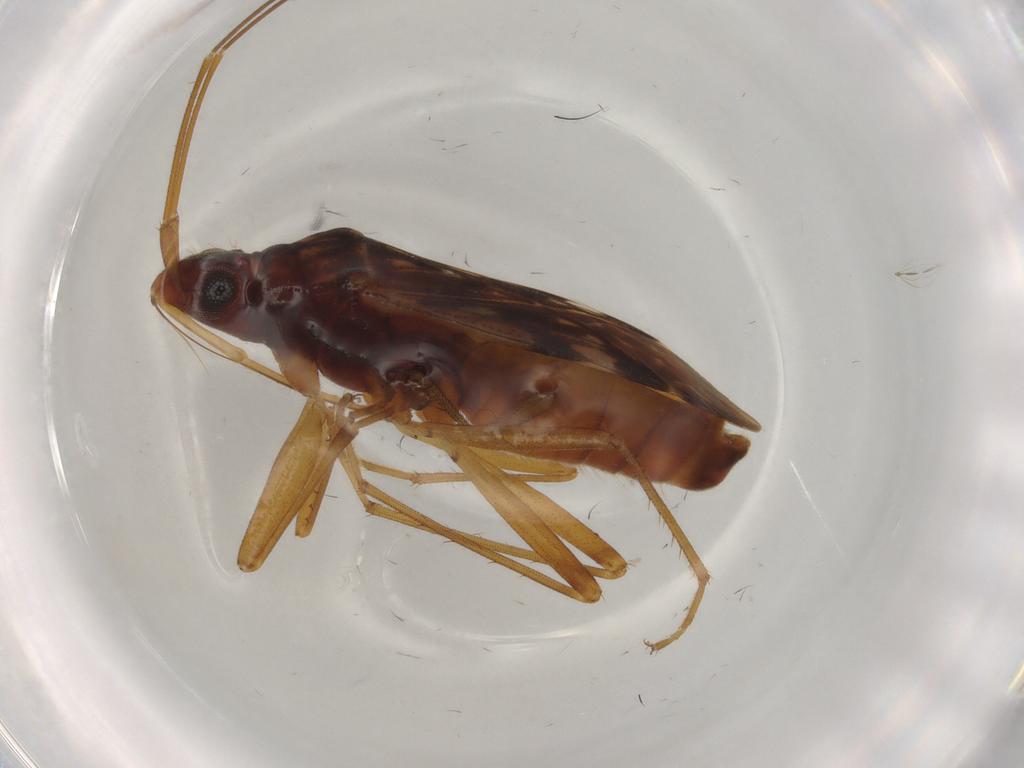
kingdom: Animalia
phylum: Arthropoda
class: Insecta
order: Hemiptera
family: Rhyparochromidae
